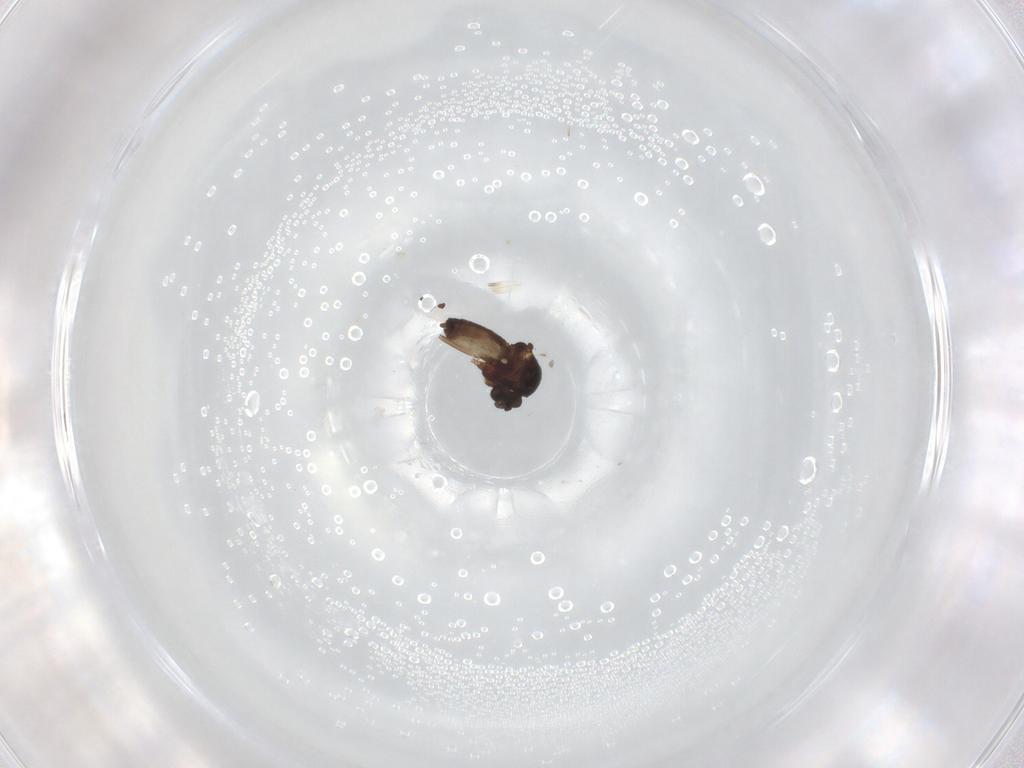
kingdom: Animalia
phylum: Arthropoda
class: Insecta
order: Diptera
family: Ceratopogonidae
